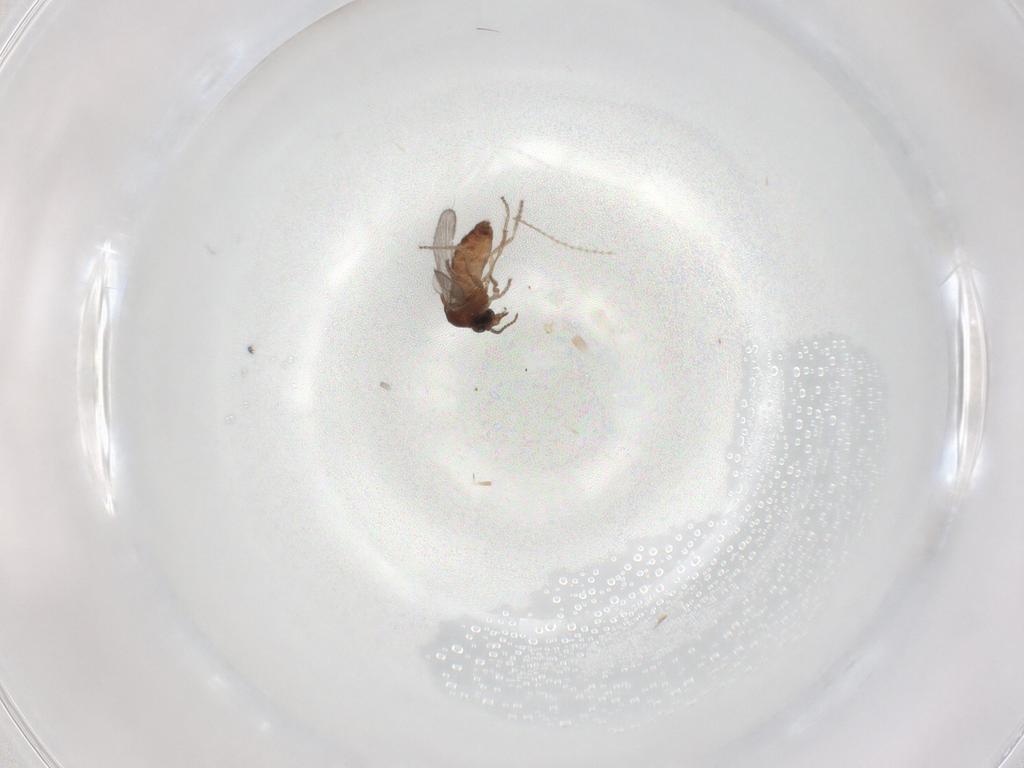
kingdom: Animalia
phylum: Arthropoda
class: Insecta
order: Diptera
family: Ceratopogonidae
